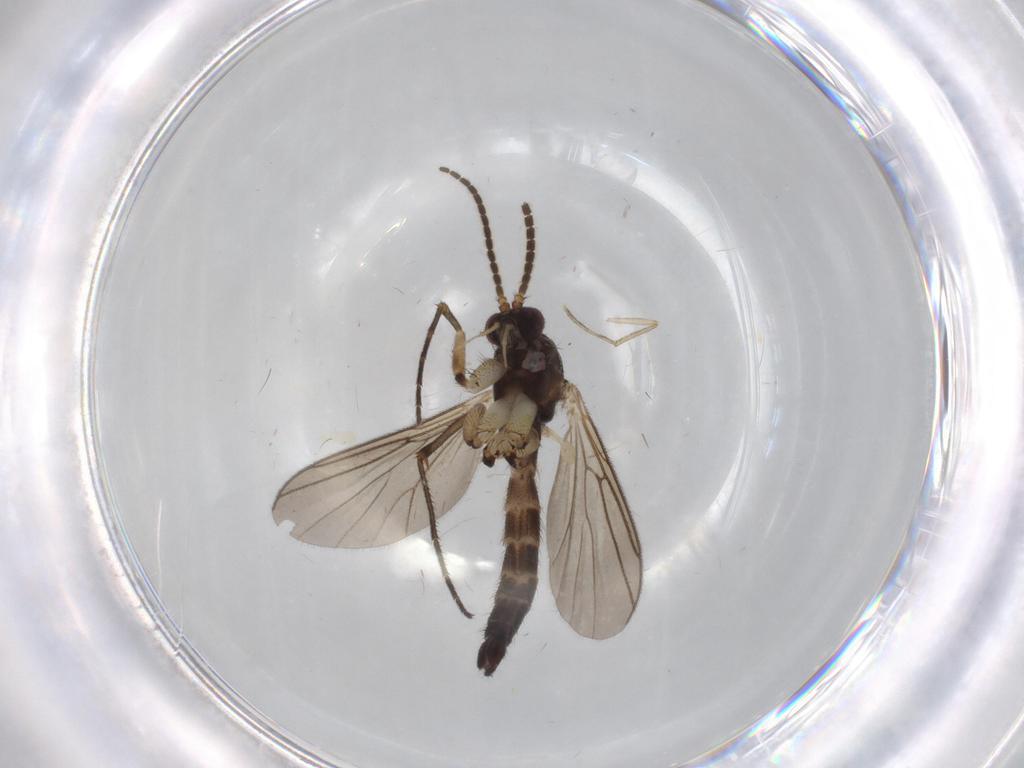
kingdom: Animalia
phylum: Arthropoda
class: Insecta
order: Diptera
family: Mycetophilidae
